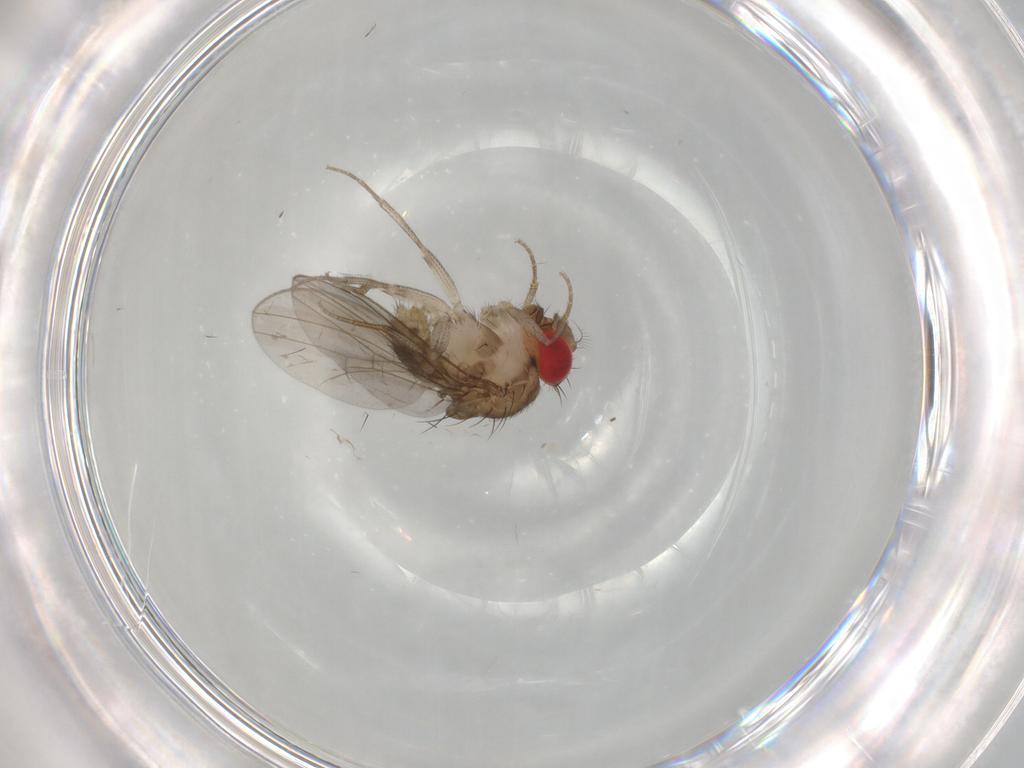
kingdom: Animalia
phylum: Arthropoda
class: Insecta
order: Diptera
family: Drosophilidae
